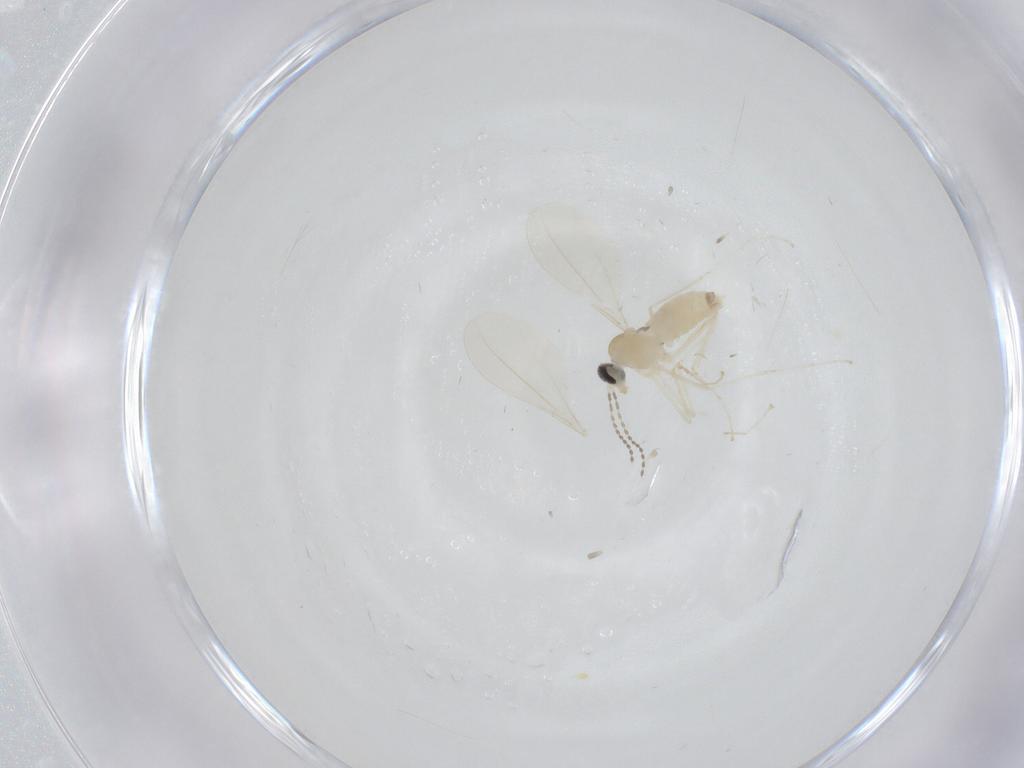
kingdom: Animalia
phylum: Arthropoda
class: Insecta
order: Diptera
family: Cecidomyiidae
